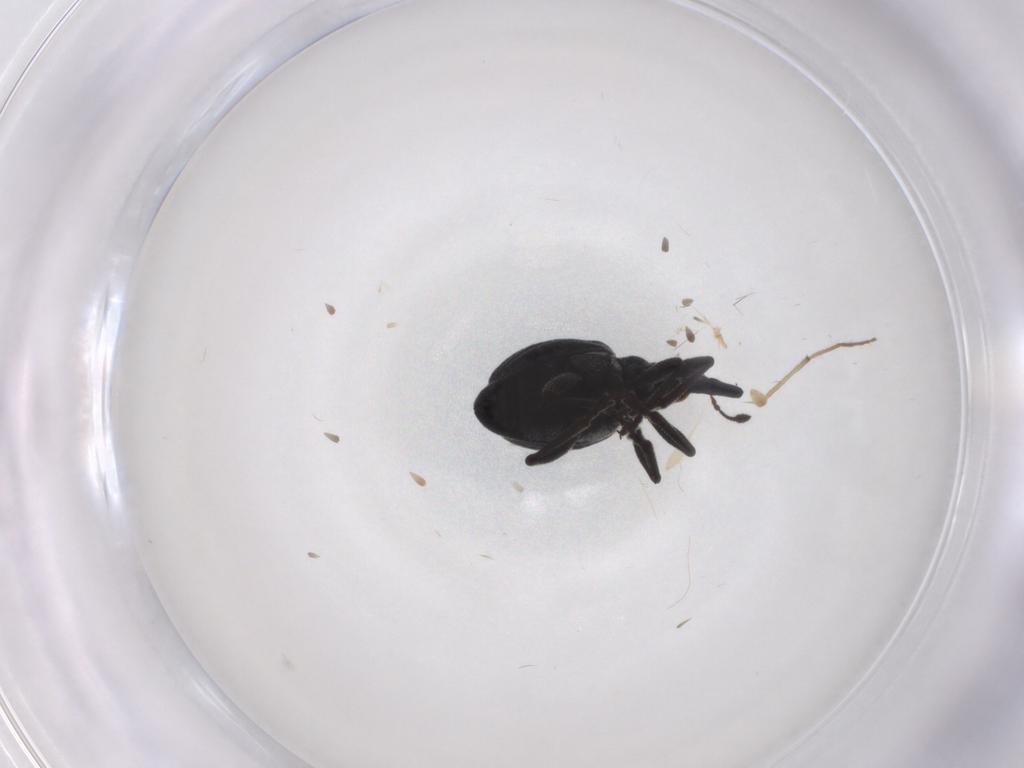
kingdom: Animalia
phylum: Arthropoda
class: Insecta
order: Coleoptera
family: Brentidae
